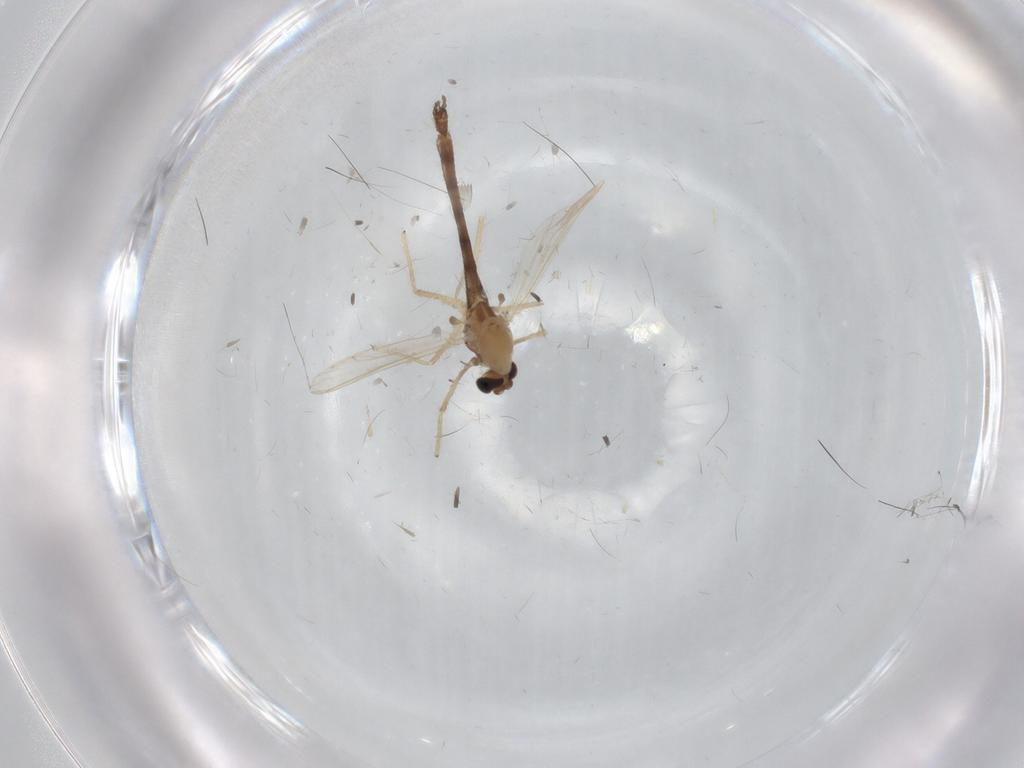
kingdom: Animalia
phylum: Arthropoda
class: Insecta
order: Diptera
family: Chironomidae
